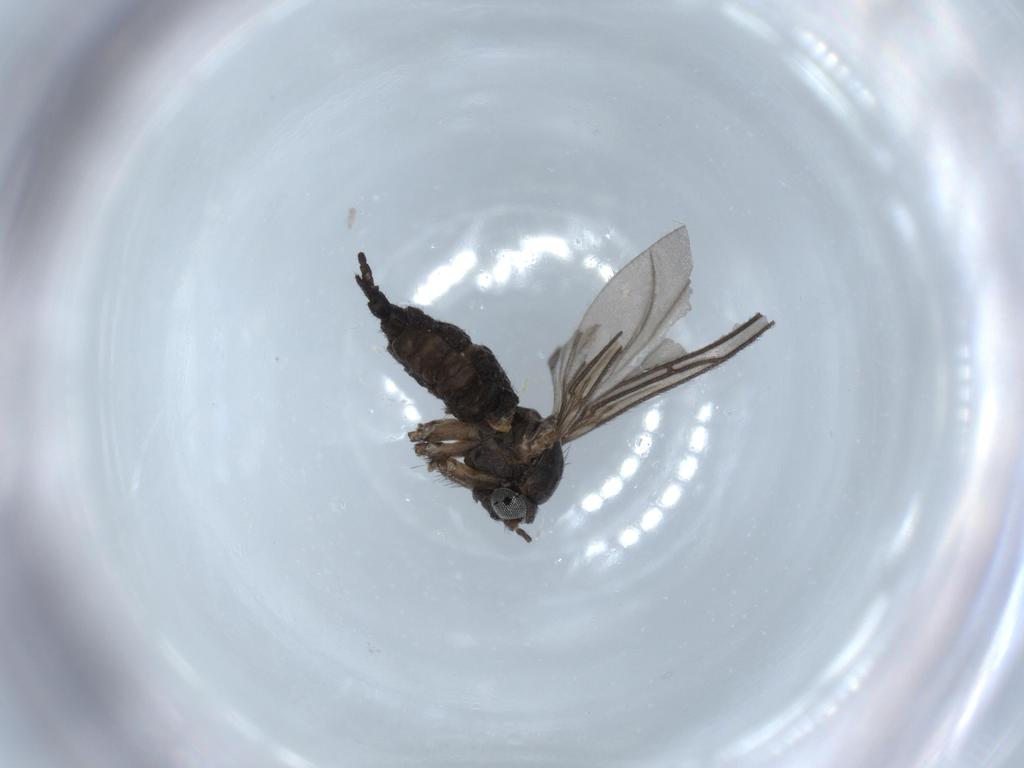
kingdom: Animalia
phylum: Arthropoda
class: Insecta
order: Diptera
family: Sciaridae
